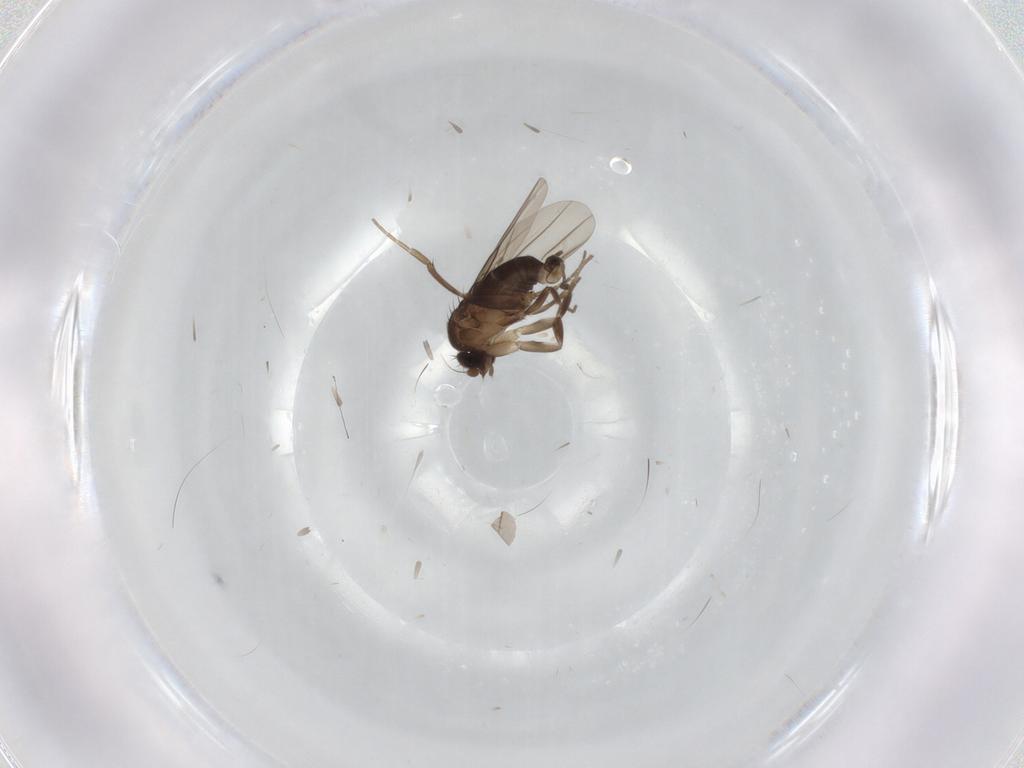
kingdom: Animalia
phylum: Arthropoda
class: Insecta
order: Diptera
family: Phoridae
